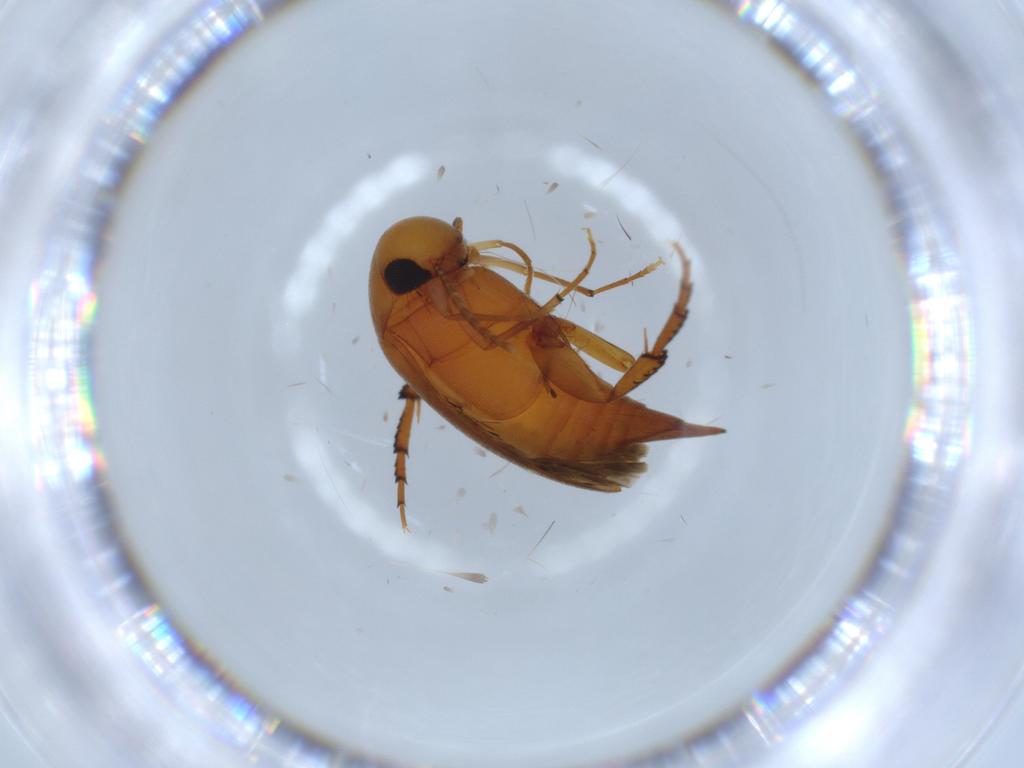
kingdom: Animalia
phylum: Arthropoda
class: Insecta
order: Coleoptera
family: Mordellidae
